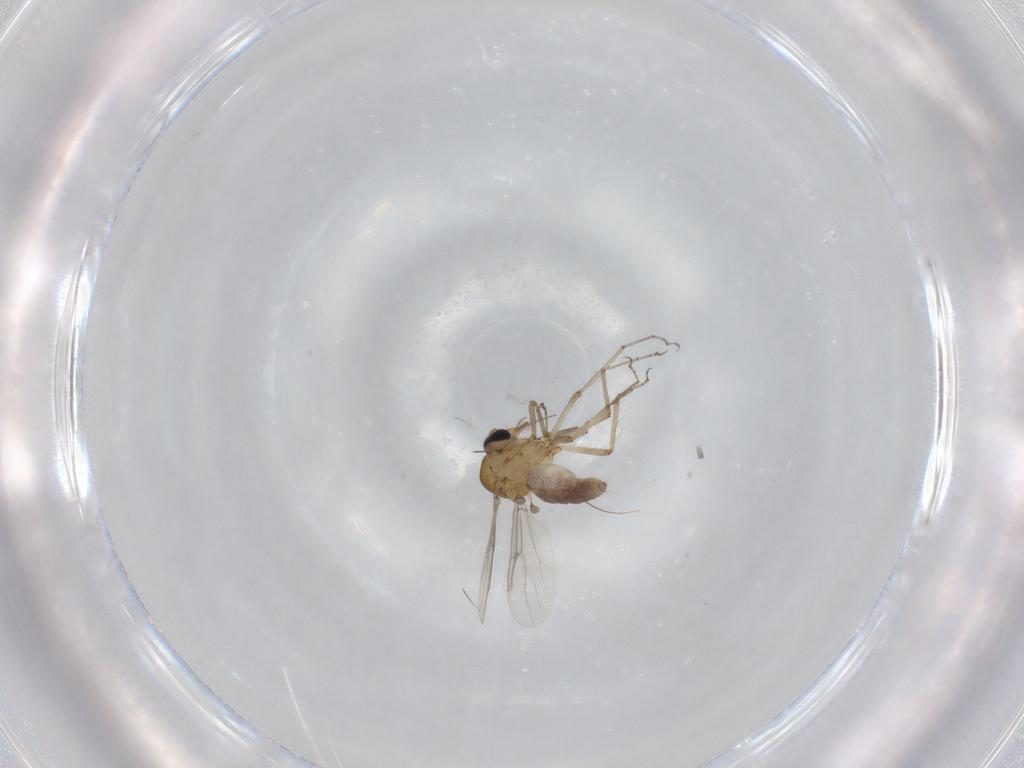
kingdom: Animalia
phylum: Arthropoda
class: Insecta
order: Diptera
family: Ceratopogonidae
